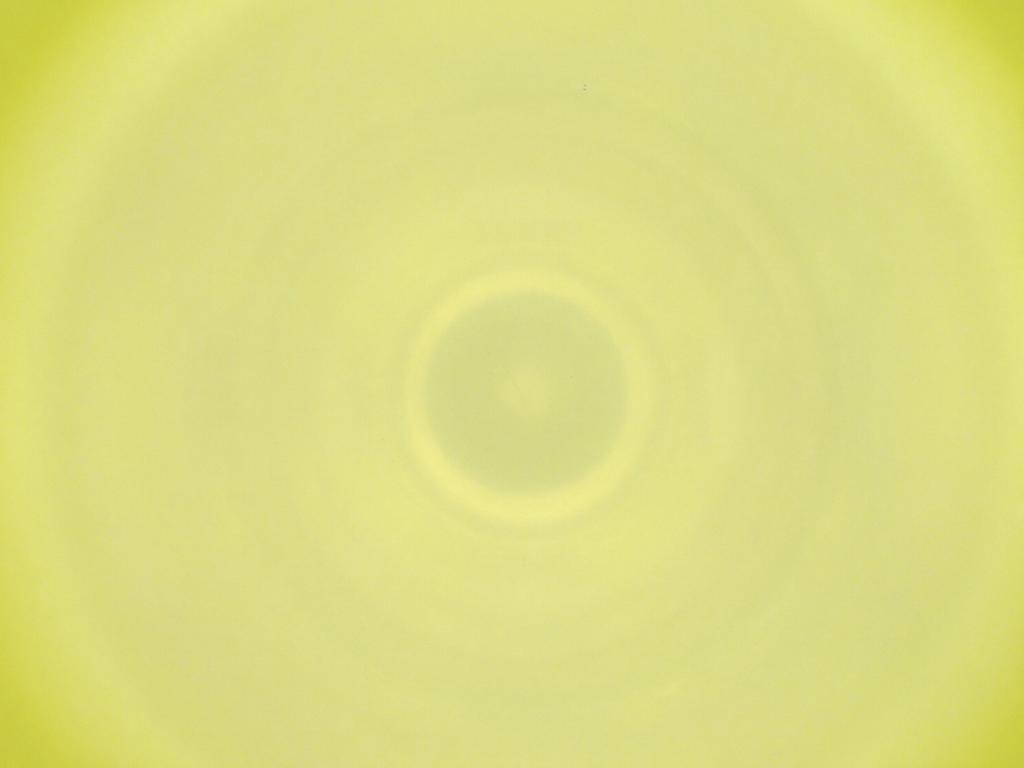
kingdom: Animalia
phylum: Arthropoda
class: Insecta
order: Diptera
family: Cecidomyiidae
